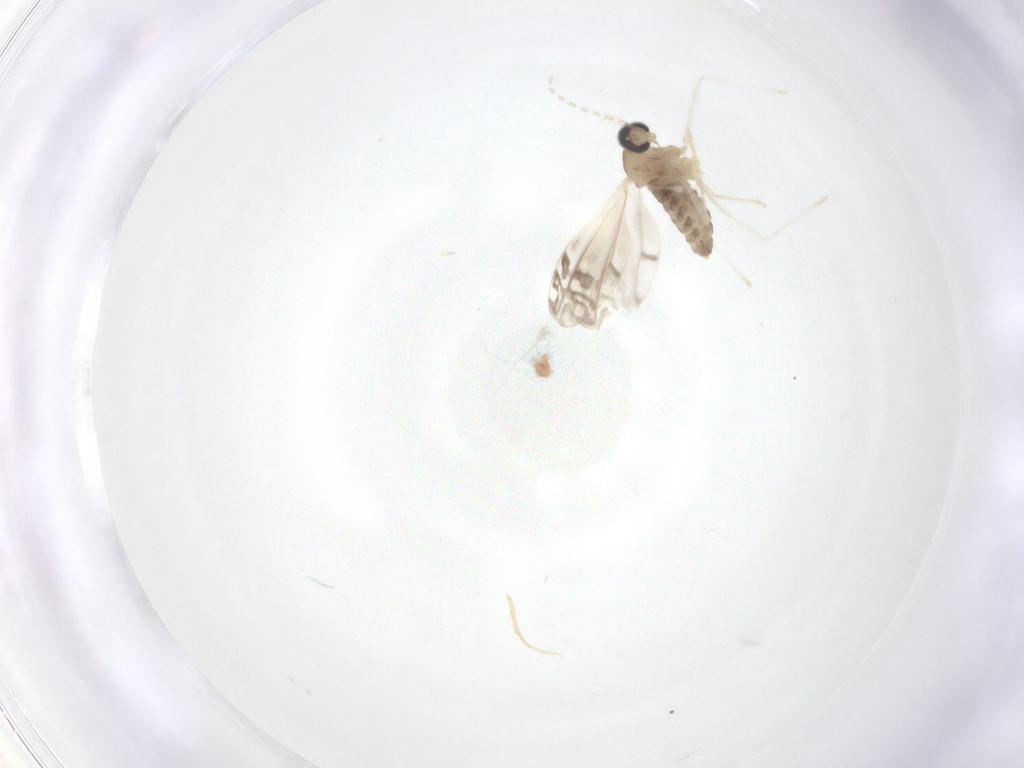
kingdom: Animalia
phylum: Arthropoda
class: Insecta
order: Diptera
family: Cecidomyiidae
